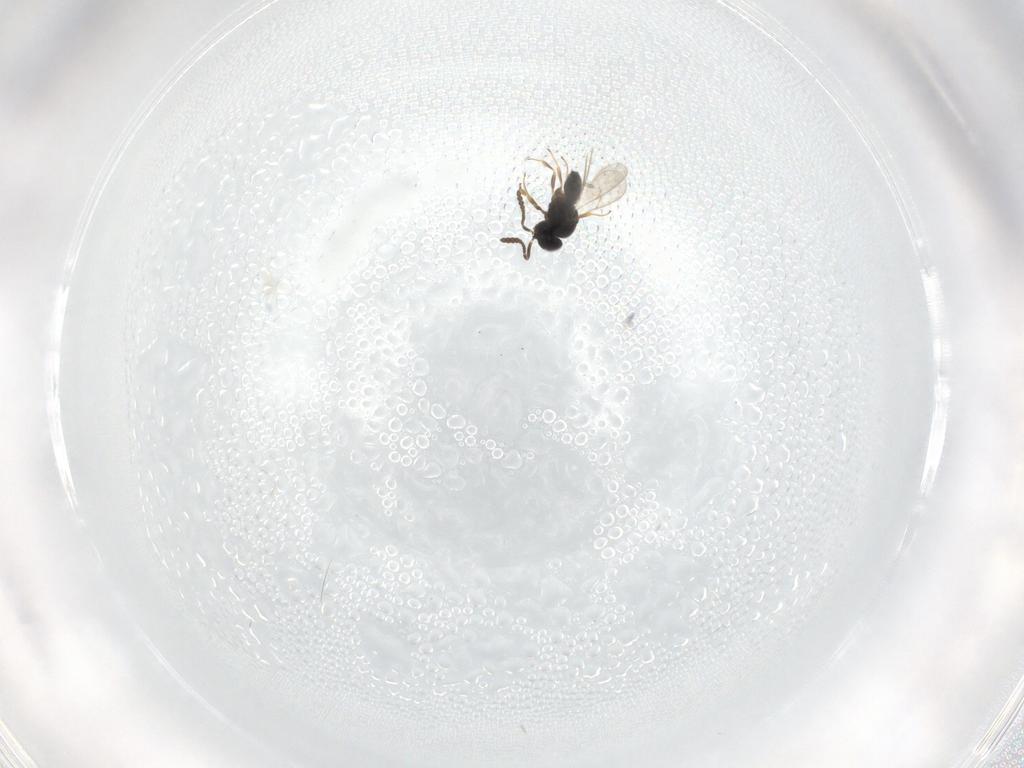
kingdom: Animalia
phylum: Arthropoda
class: Insecta
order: Hymenoptera
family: Scelionidae
